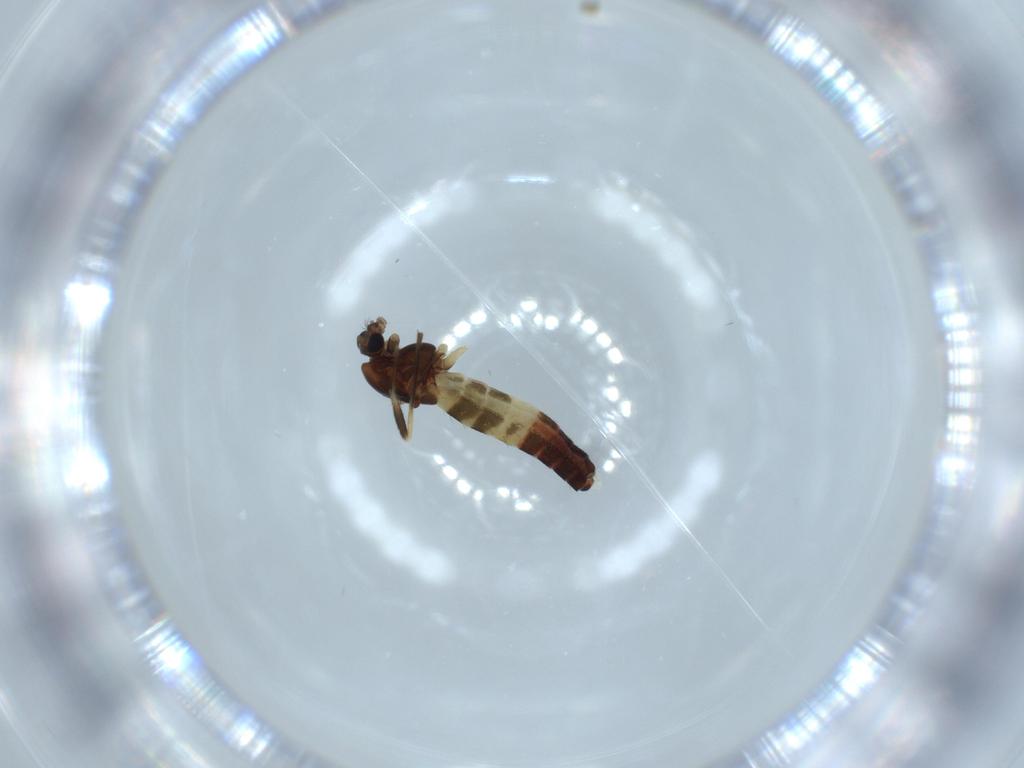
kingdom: Animalia
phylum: Arthropoda
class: Insecta
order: Diptera
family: Chironomidae
